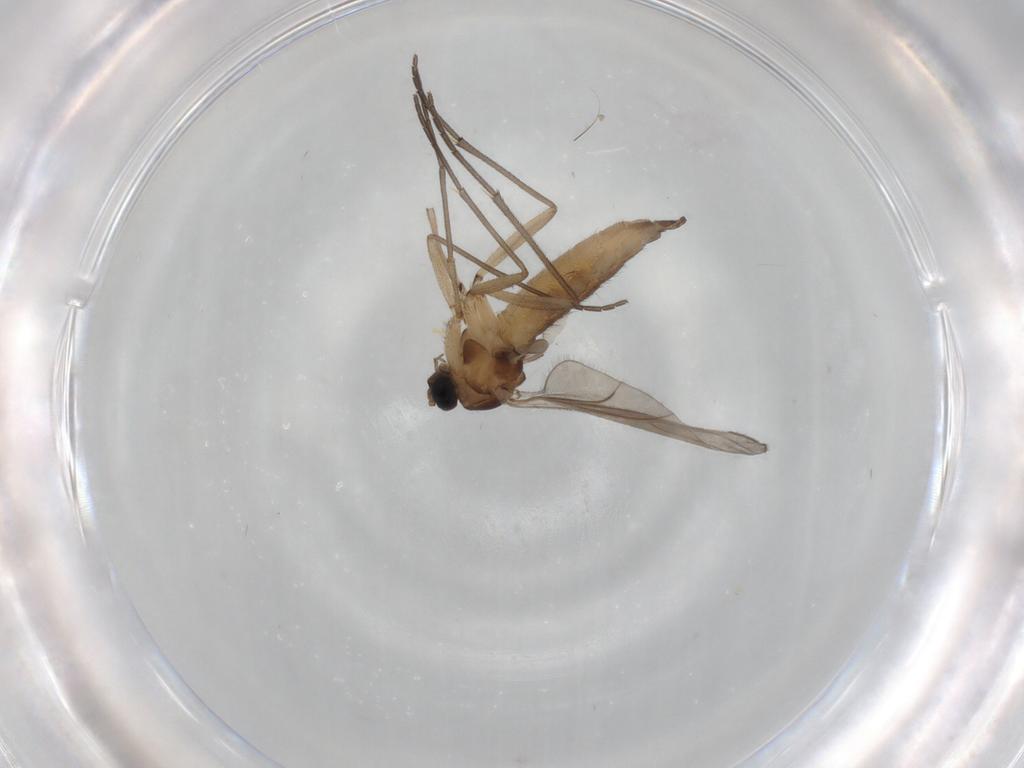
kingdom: Animalia
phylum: Arthropoda
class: Insecta
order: Diptera
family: Sciaridae
